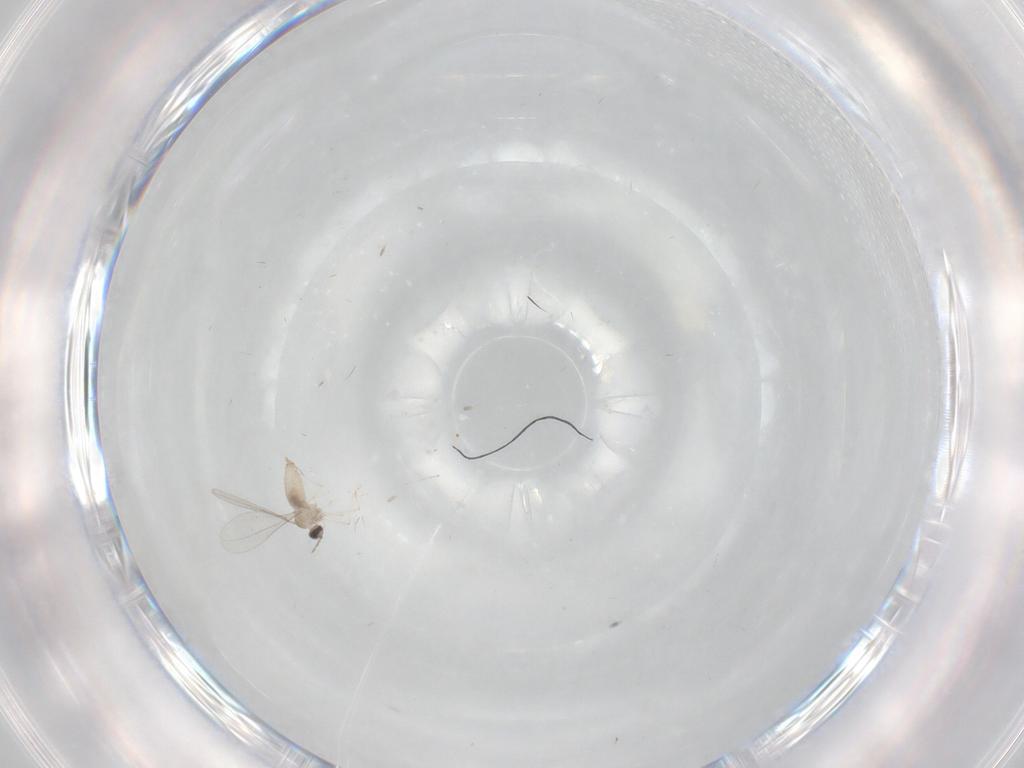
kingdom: Animalia
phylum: Arthropoda
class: Insecta
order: Diptera
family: Cecidomyiidae
